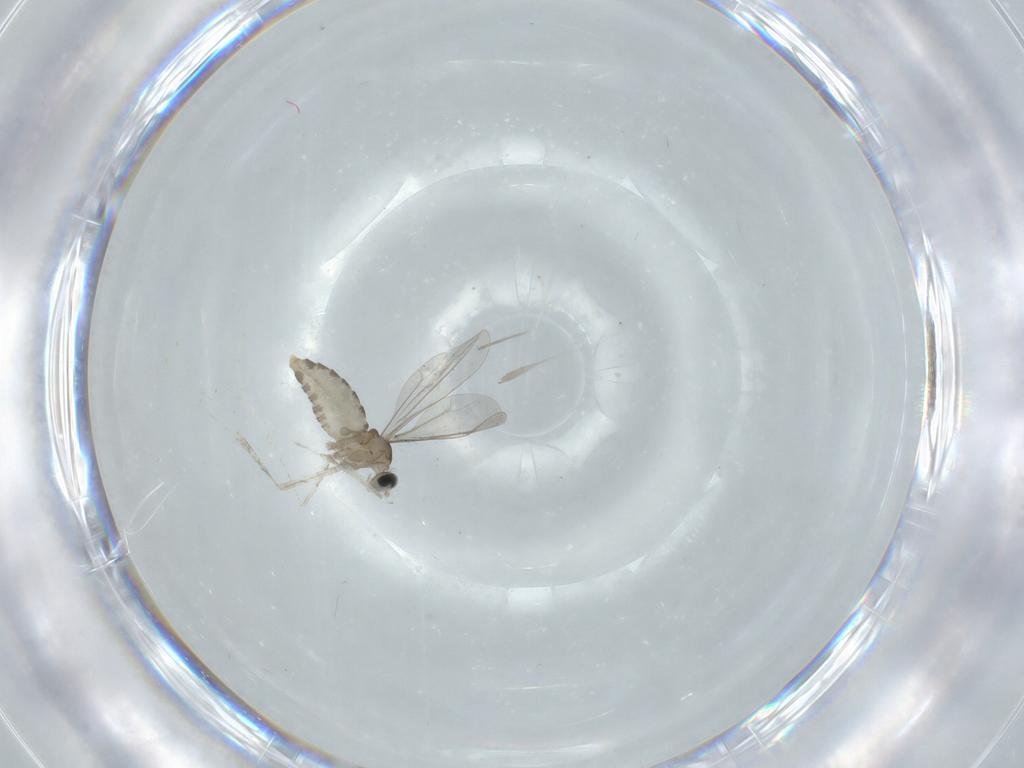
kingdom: Animalia
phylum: Arthropoda
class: Insecta
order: Diptera
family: Cecidomyiidae
